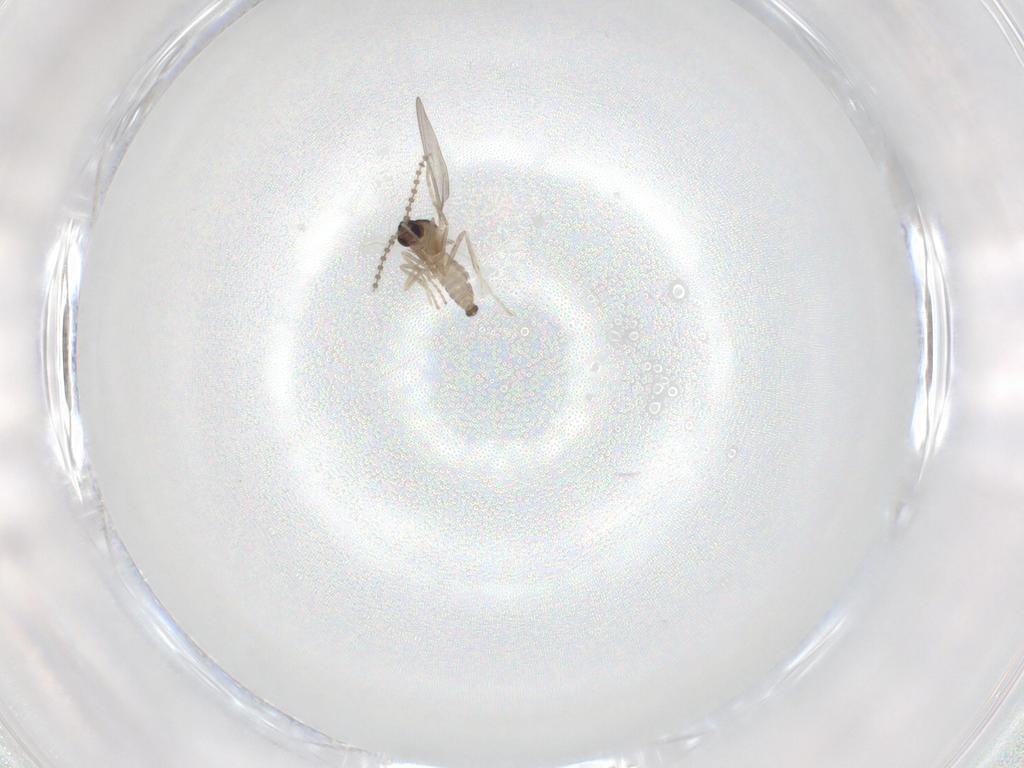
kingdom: Animalia
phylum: Arthropoda
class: Insecta
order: Diptera
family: Cecidomyiidae
